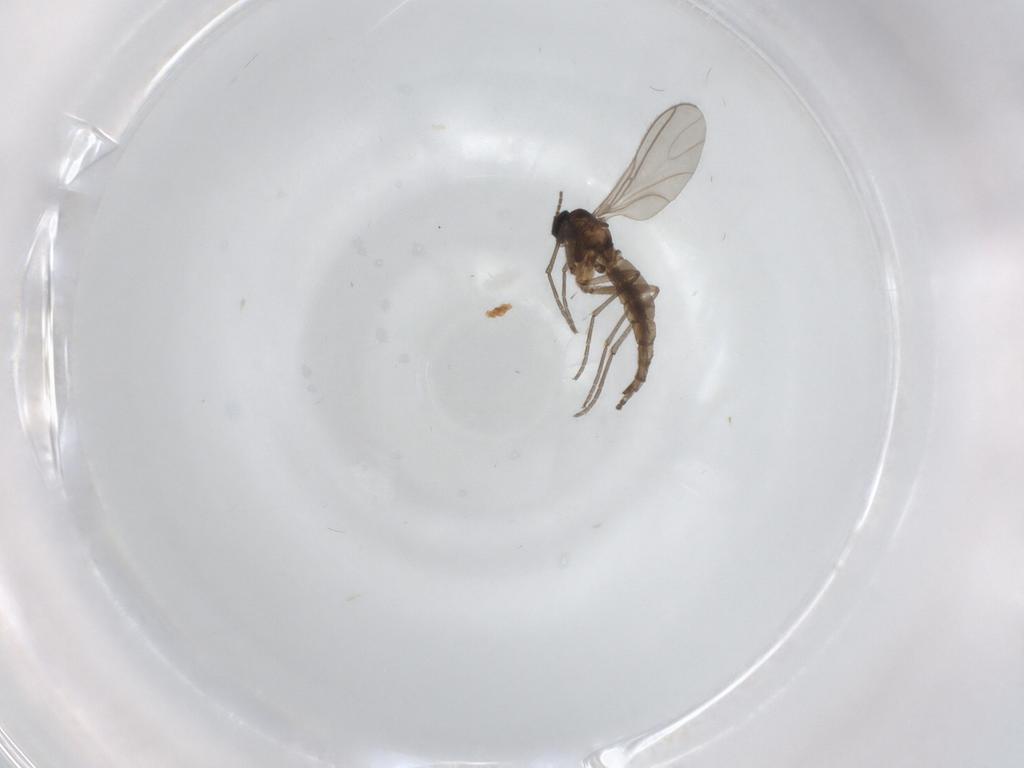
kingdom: Animalia
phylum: Arthropoda
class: Insecta
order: Diptera
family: Sciaridae
